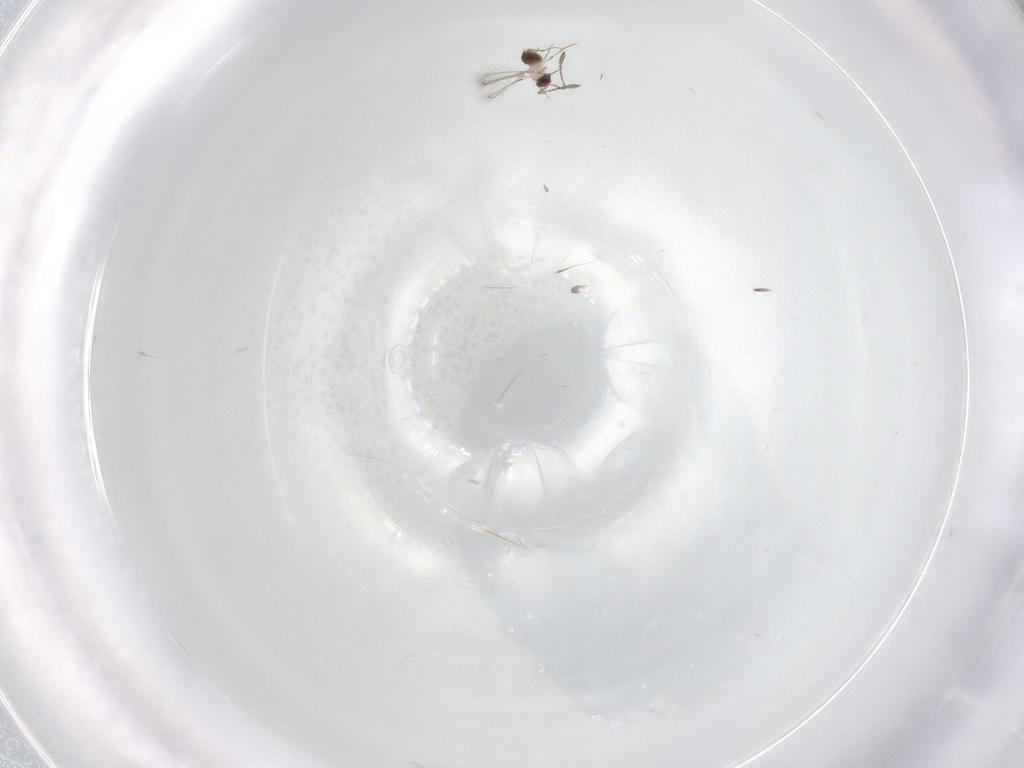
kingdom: Animalia
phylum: Arthropoda
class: Insecta
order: Hymenoptera
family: Mymaridae
